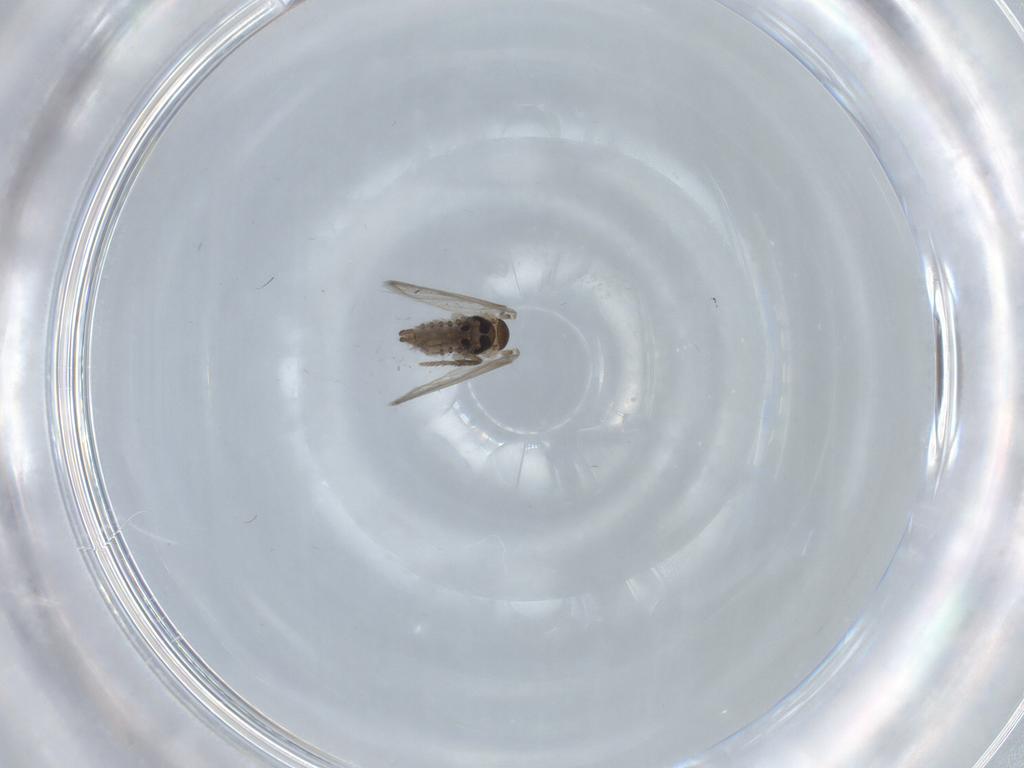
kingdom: Animalia
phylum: Arthropoda
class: Insecta
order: Diptera
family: Psychodidae
